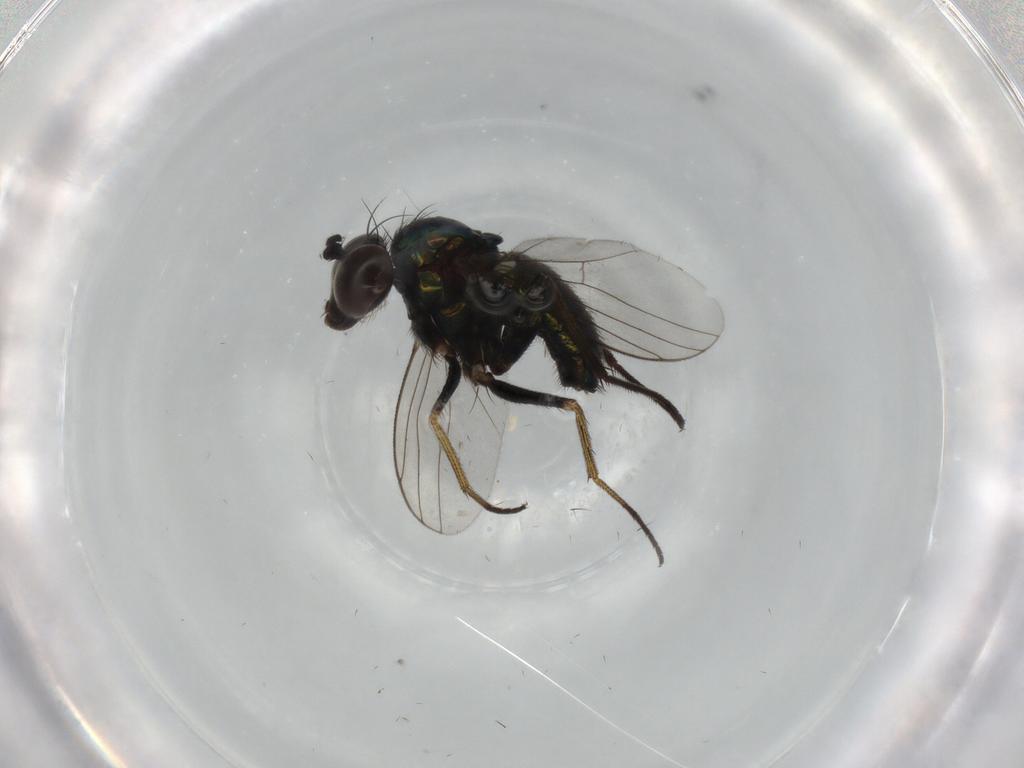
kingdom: Animalia
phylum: Arthropoda
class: Insecta
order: Diptera
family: Dolichopodidae
